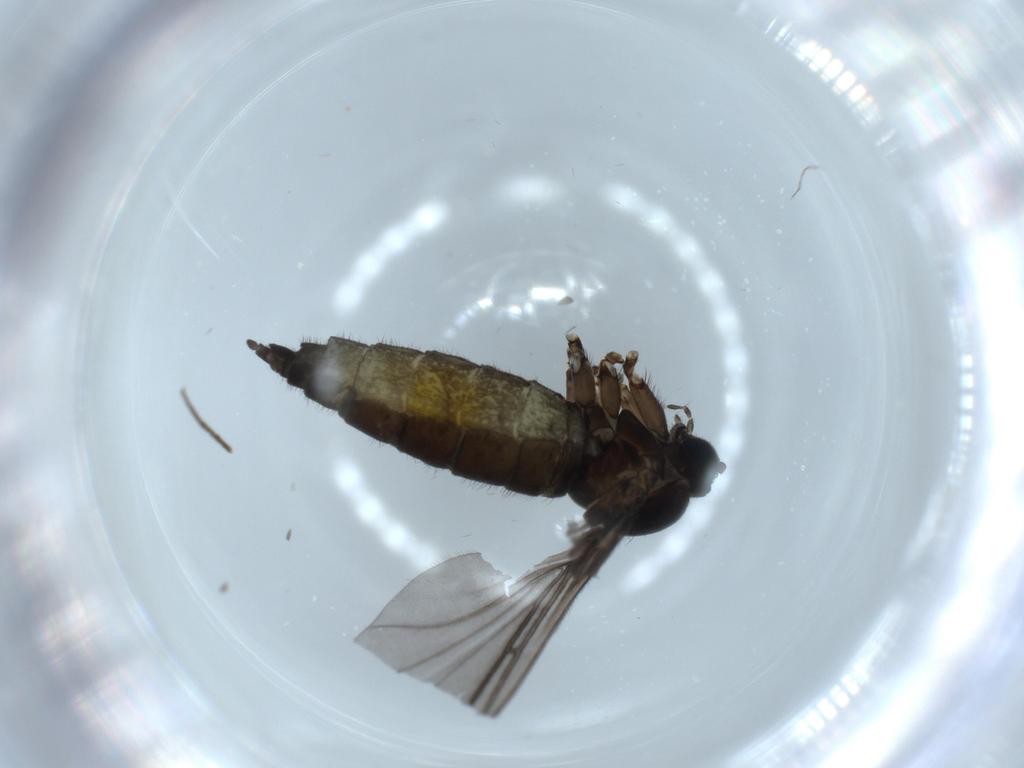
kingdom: Animalia
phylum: Arthropoda
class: Insecta
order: Diptera
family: Sciaridae
